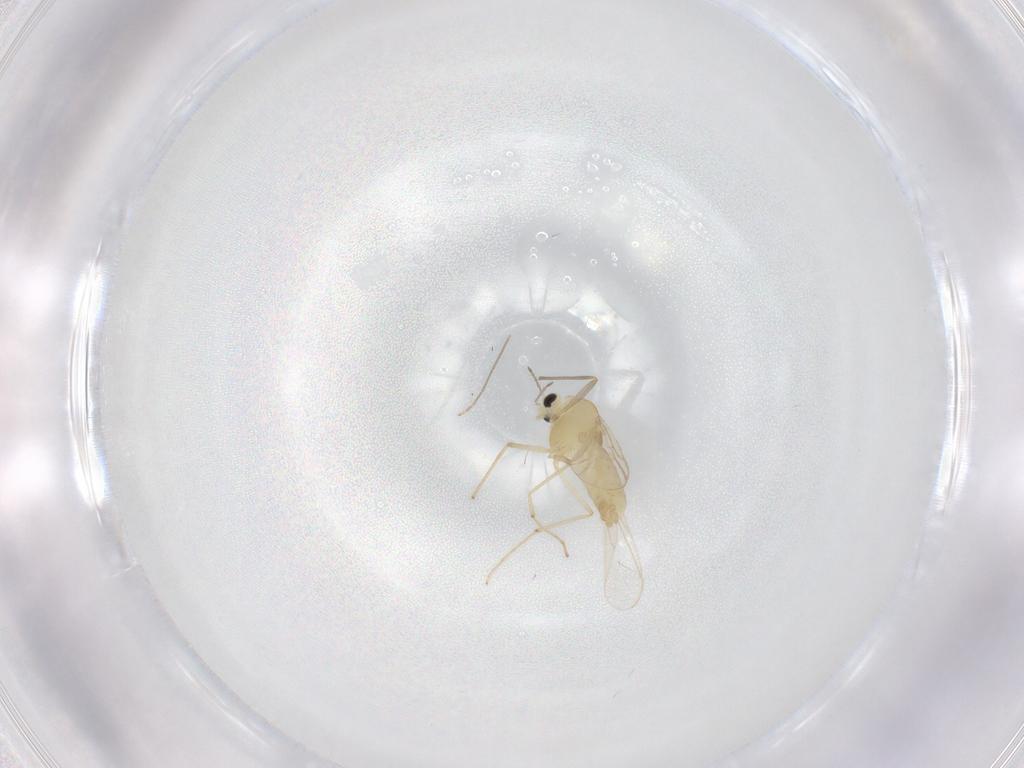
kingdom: Animalia
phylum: Arthropoda
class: Insecta
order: Diptera
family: Chironomidae
